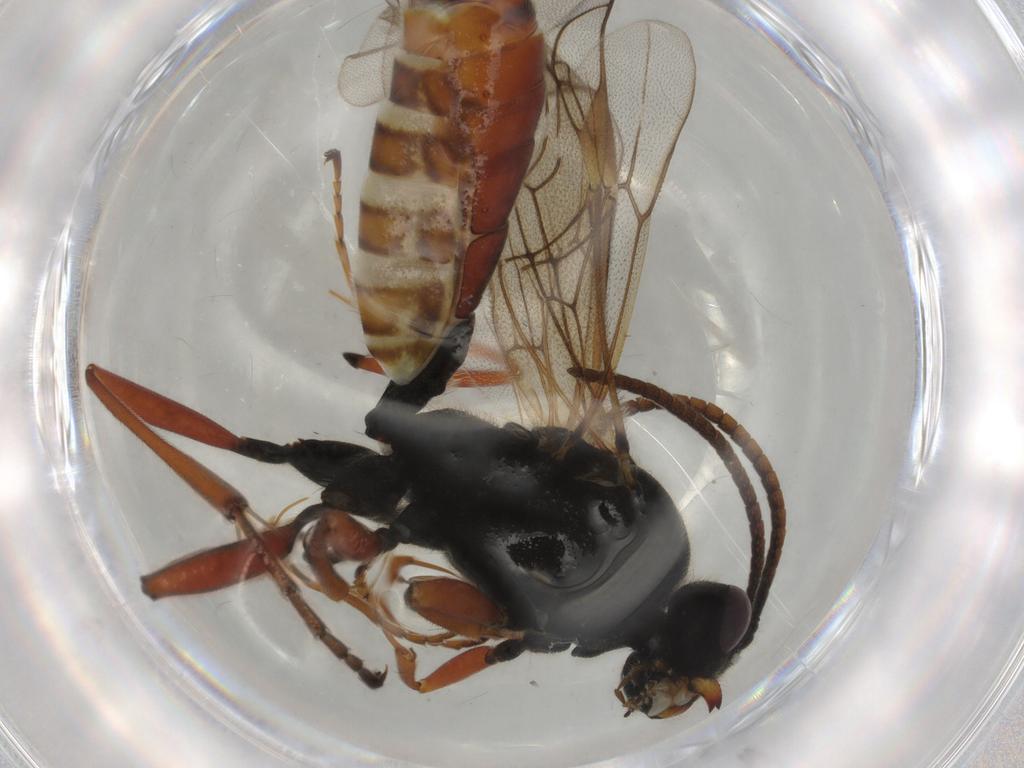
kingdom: Animalia
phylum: Arthropoda
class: Insecta
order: Hymenoptera
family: Ichneumonidae
